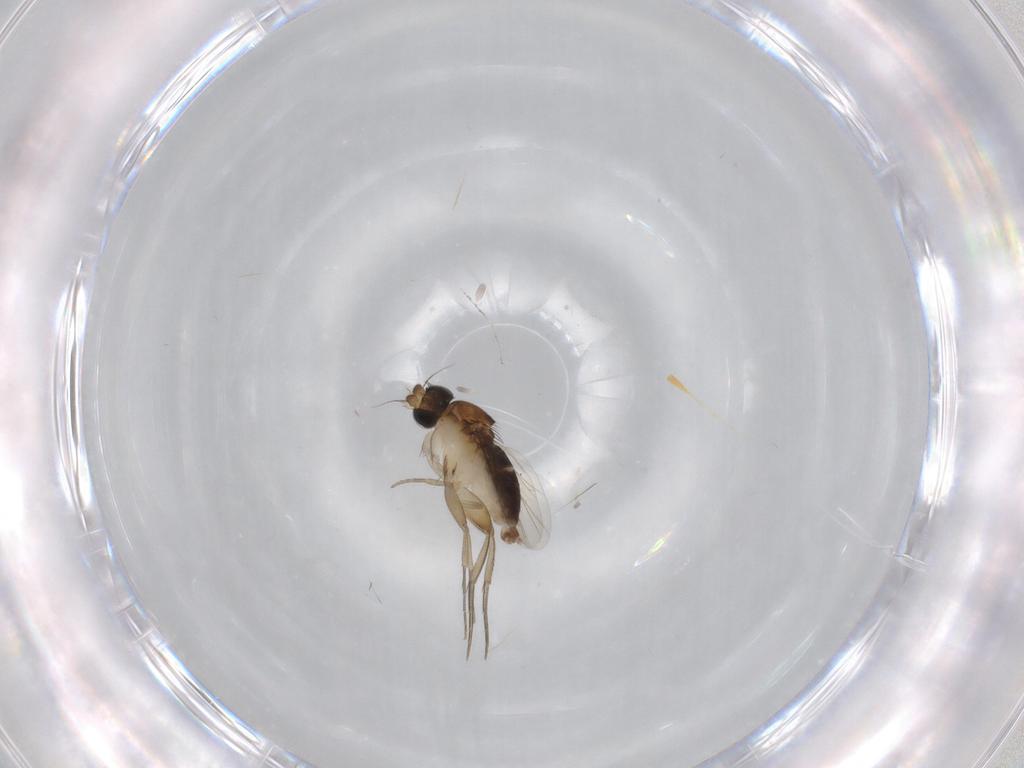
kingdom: Animalia
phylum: Arthropoda
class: Insecta
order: Diptera
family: Phoridae
